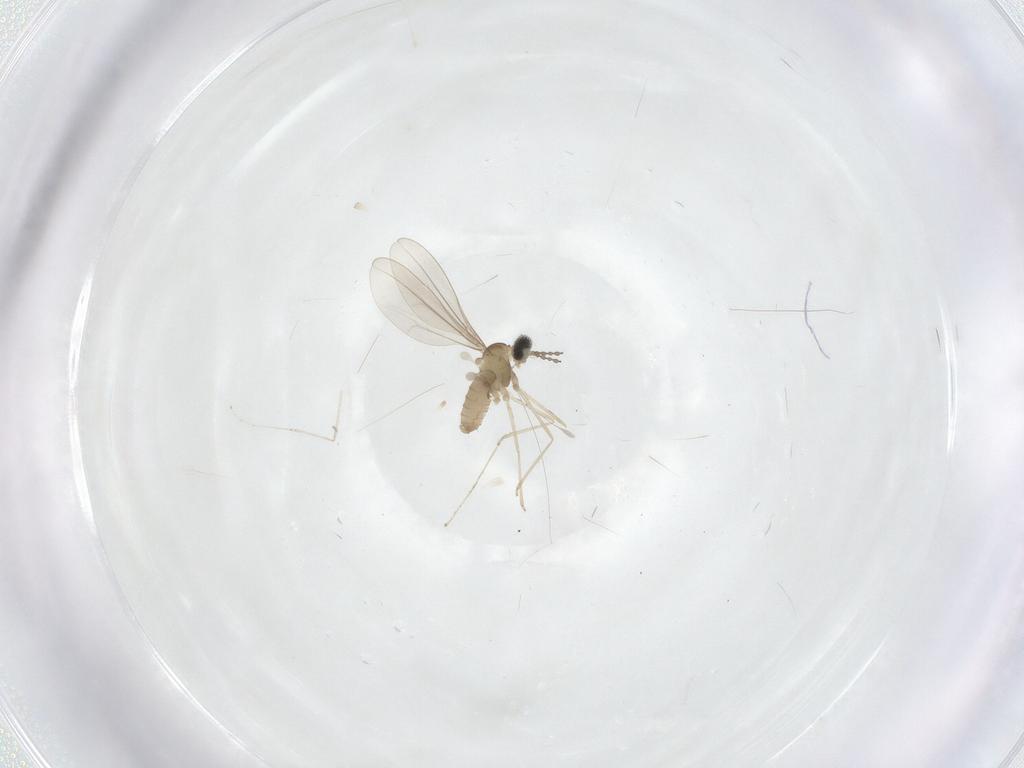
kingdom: Animalia
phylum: Arthropoda
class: Insecta
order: Diptera
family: Cecidomyiidae
